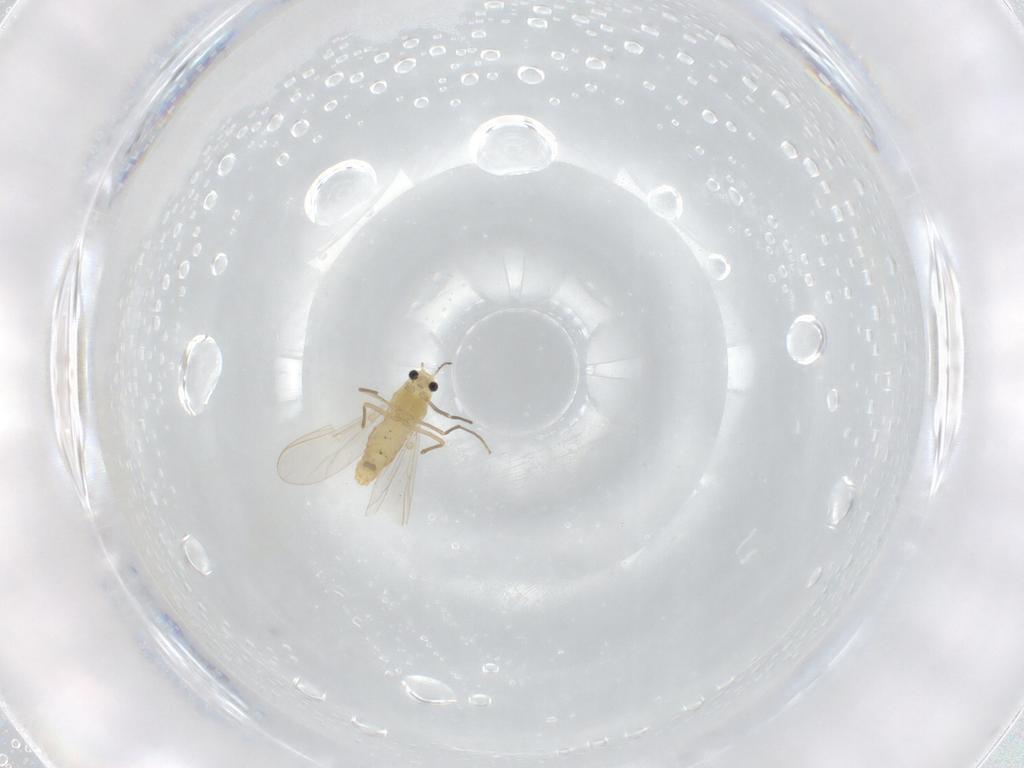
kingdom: Animalia
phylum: Arthropoda
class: Insecta
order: Diptera
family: Chironomidae
